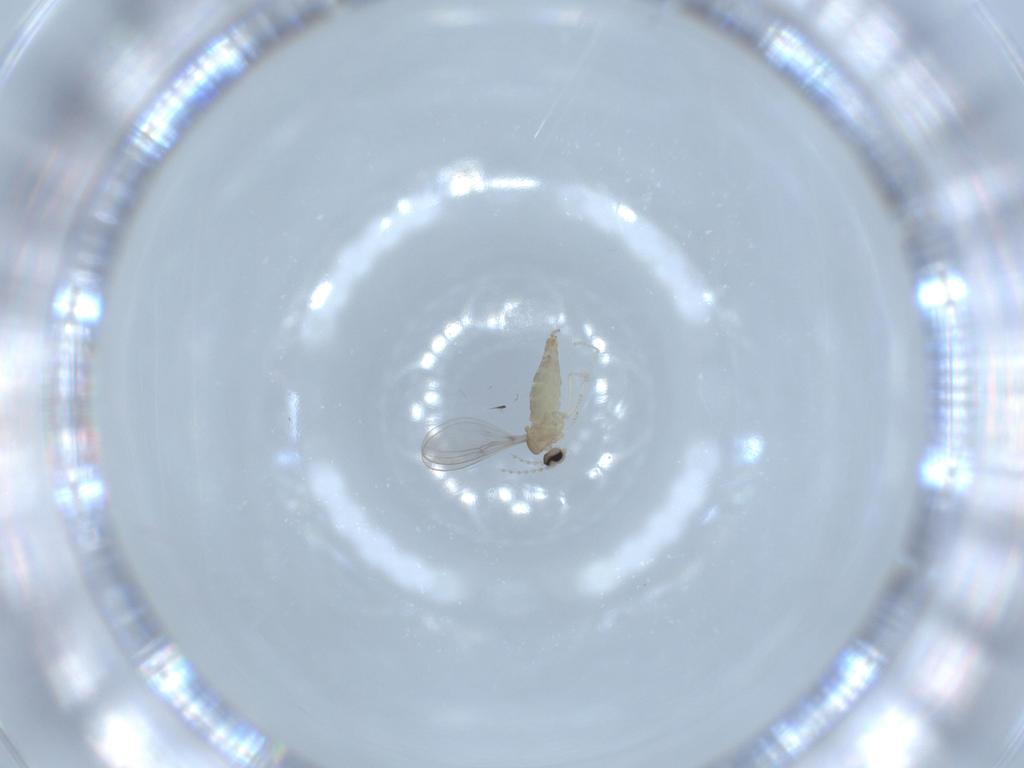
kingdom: Animalia
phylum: Arthropoda
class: Insecta
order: Diptera
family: Cecidomyiidae
